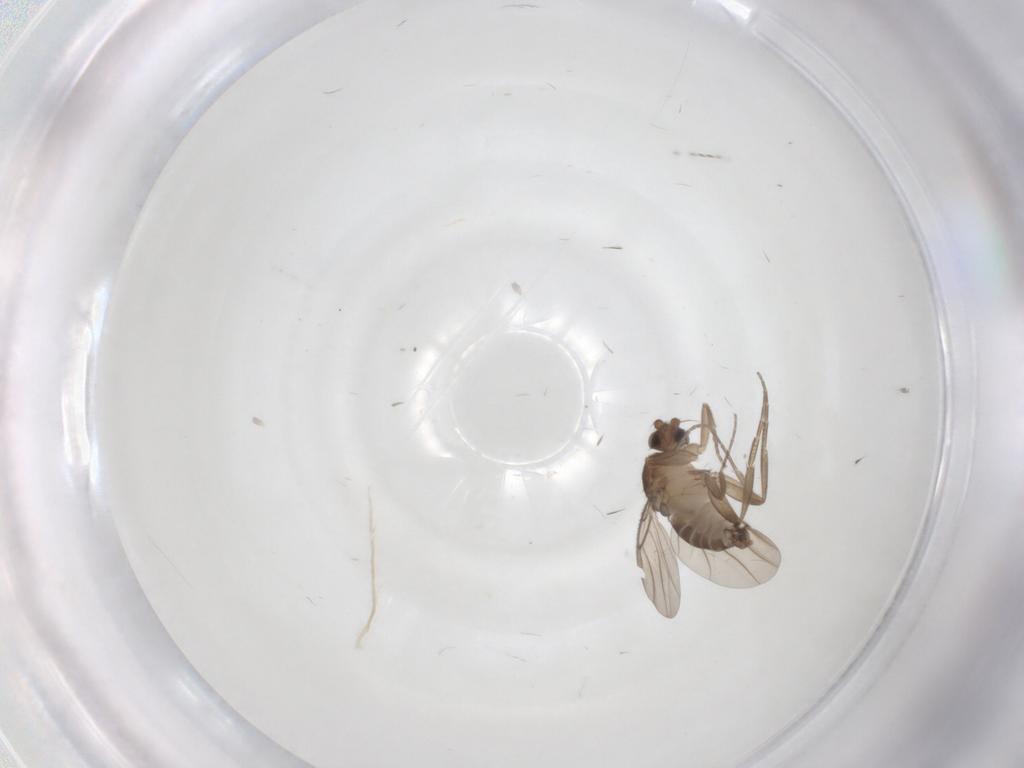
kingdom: Animalia
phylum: Arthropoda
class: Insecta
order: Diptera
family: Phoridae
